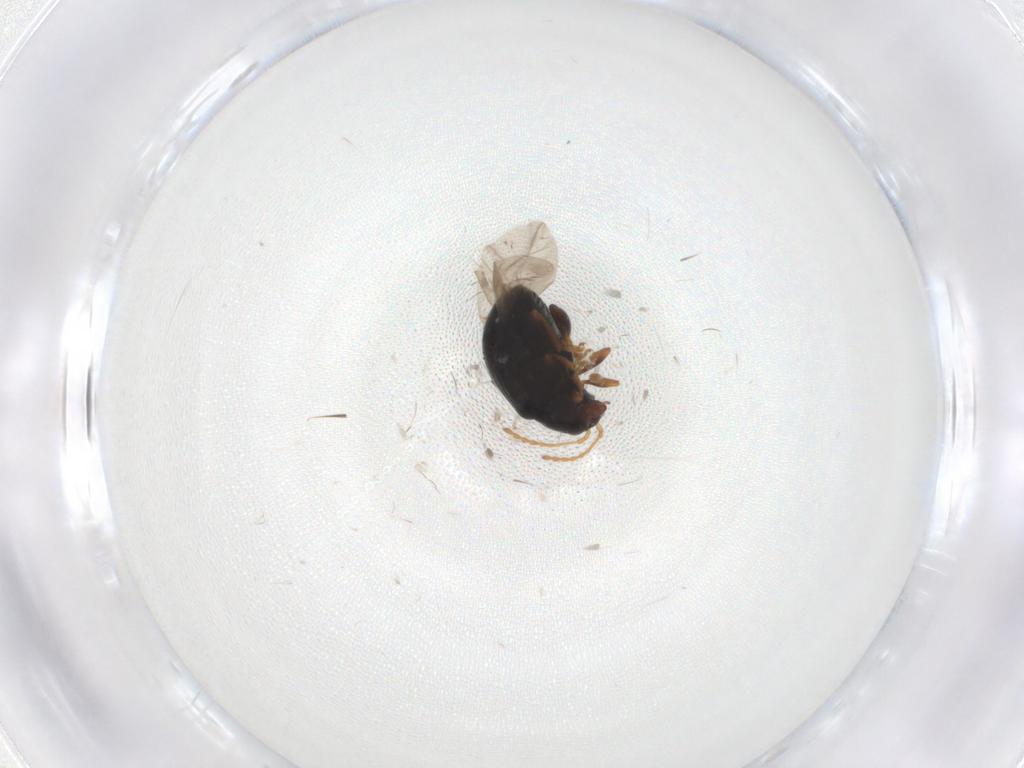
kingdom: Animalia
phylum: Arthropoda
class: Insecta
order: Coleoptera
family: Chrysomelidae
